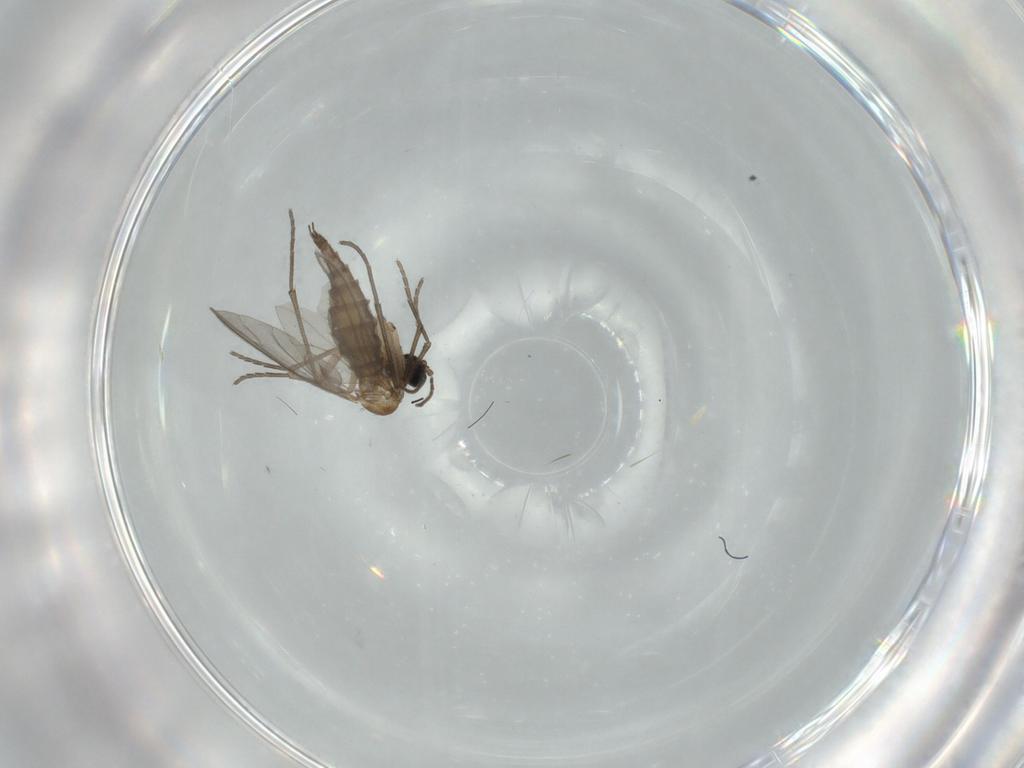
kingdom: Animalia
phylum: Arthropoda
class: Insecta
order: Diptera
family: Sciaridae
